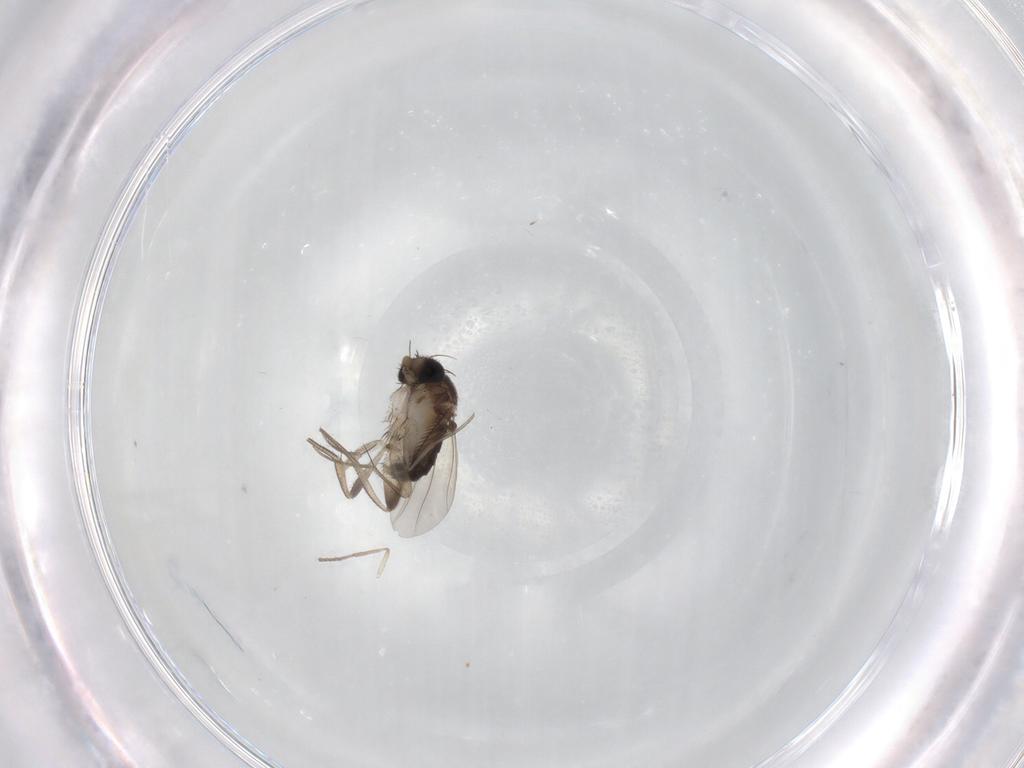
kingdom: Animalia
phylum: Arthropoda
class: Insecta
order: Diptera
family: Phoridae
